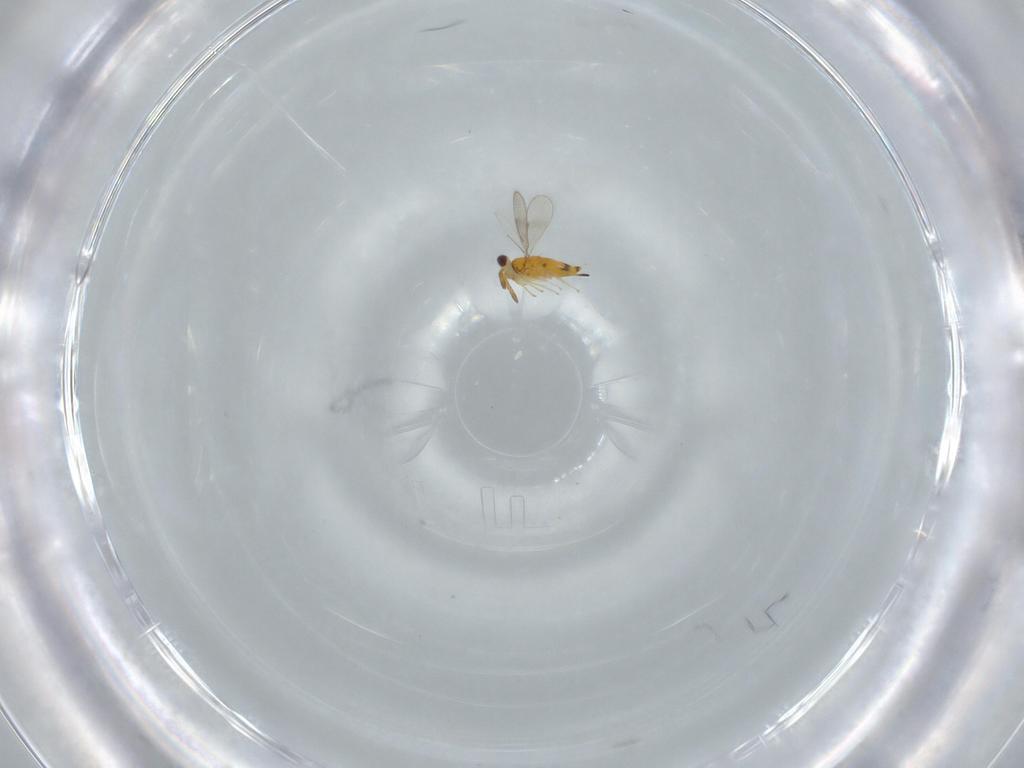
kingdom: Animalia
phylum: Arthropoda
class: Insecta
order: Hymenoptera
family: Aphelinidae
